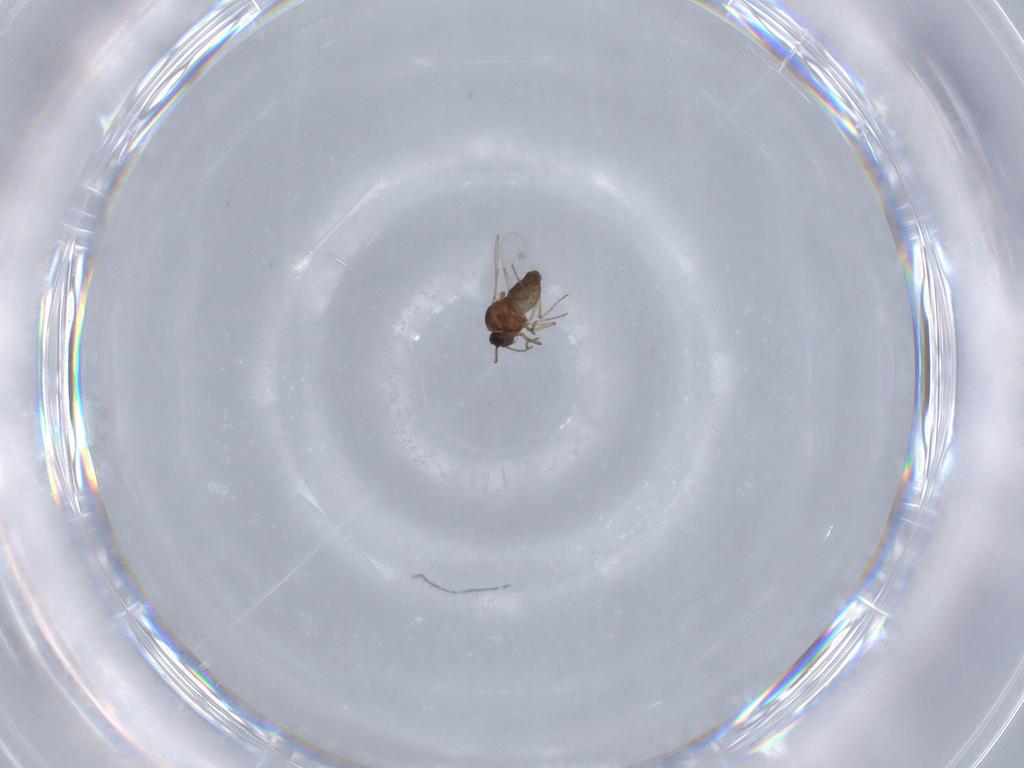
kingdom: Animalia
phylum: Arthropoda
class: Insecta
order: Diptera
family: Ceratopogonidae
